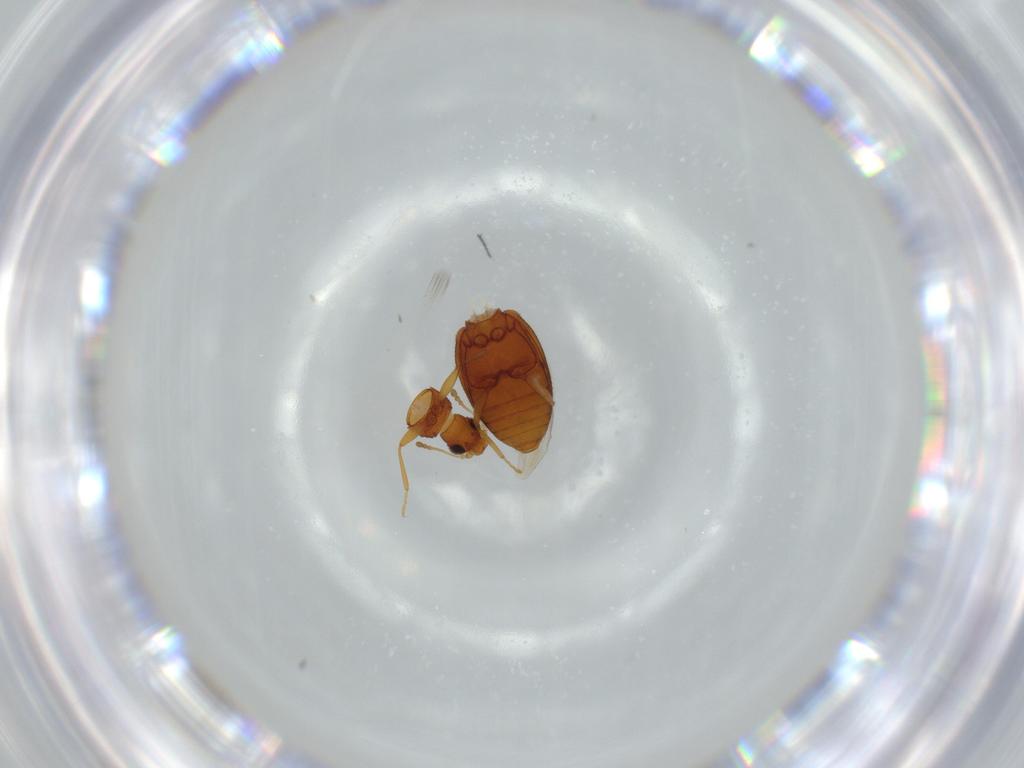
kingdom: Animalia
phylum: Arthropoda
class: Insecta
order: Coleoptera
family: Latridiidae
